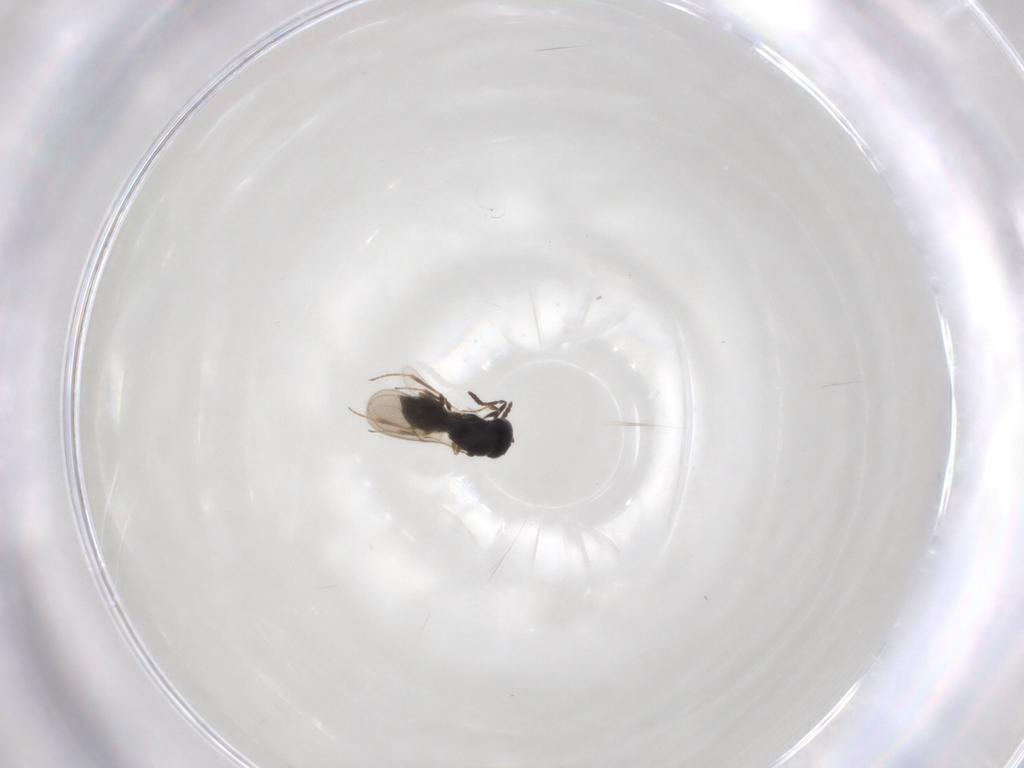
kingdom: Animalia
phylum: Arthropoda
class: Insecta
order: Hymenoptera
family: Scelionidae
